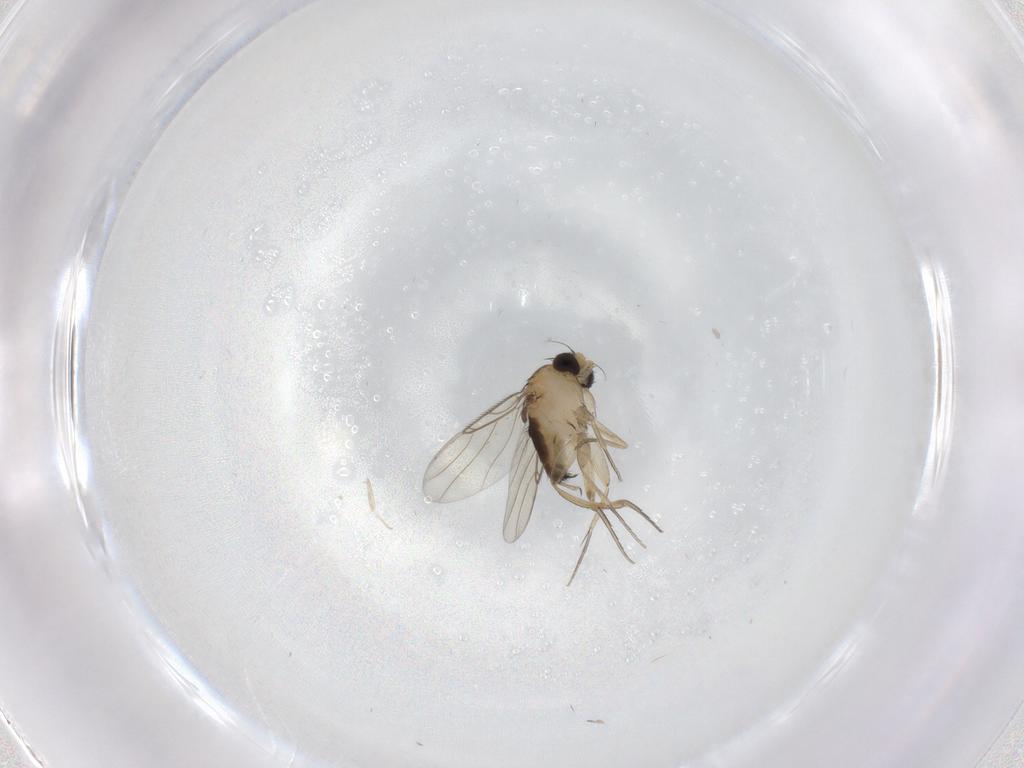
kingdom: Animalia
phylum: Arthropoda
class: Insecta
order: Diptera
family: Phoridae
